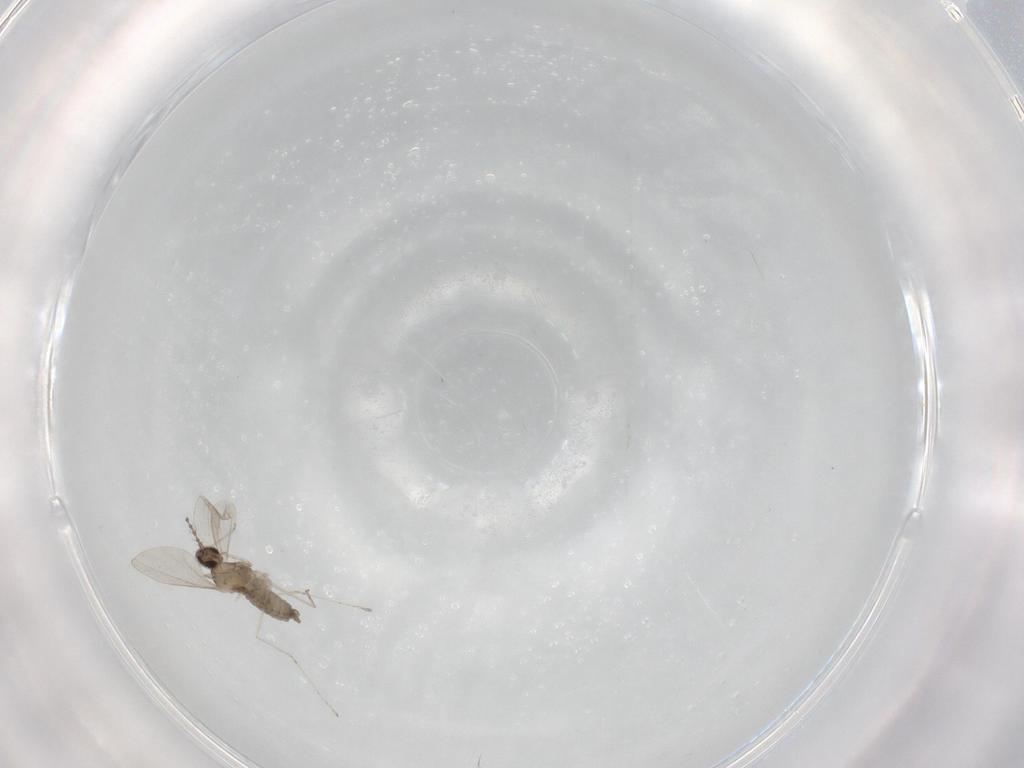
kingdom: Animalia
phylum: Arthropoda
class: Insecta
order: Diptera
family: Cecidomyiidae
